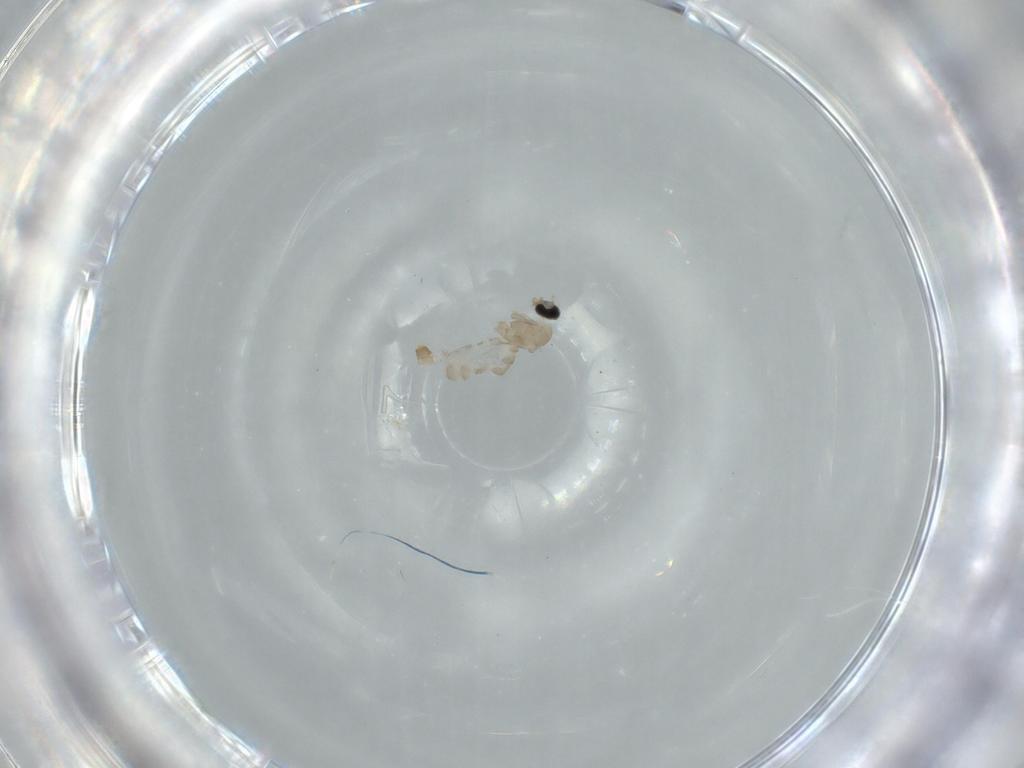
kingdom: Animalia
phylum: Arthropoda
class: Insecta
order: Diptera
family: Cecidomyiidae
